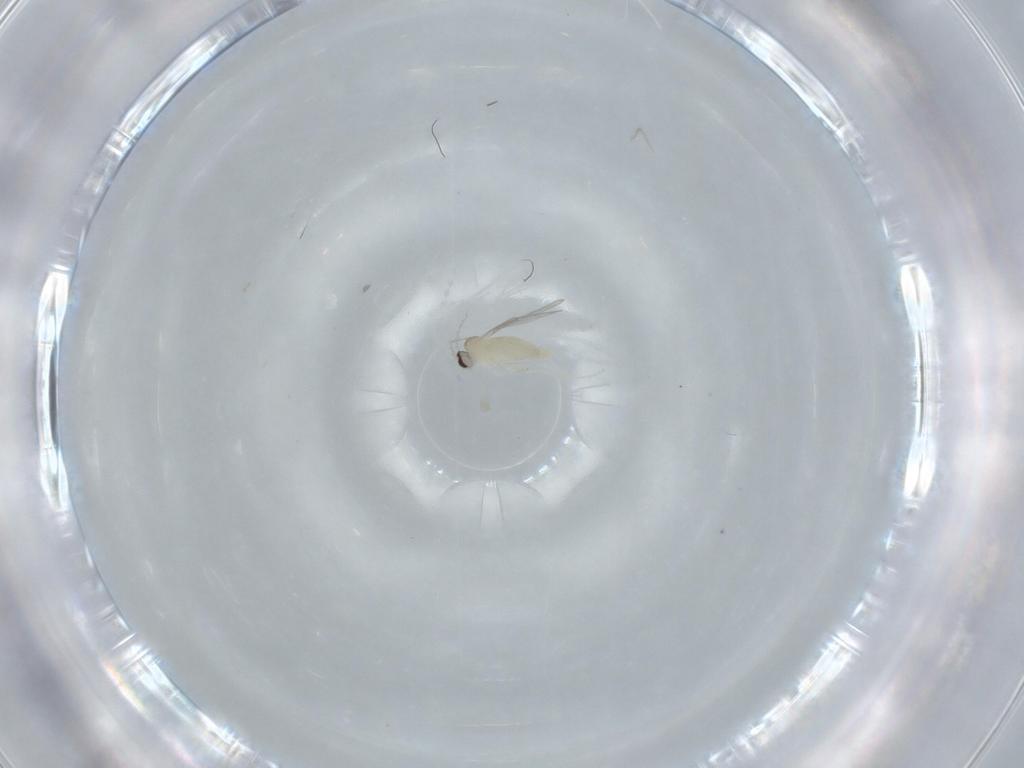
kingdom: Animalia
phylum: Arthropoda
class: Insecta
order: Diptera
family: Cecidomyiidae
